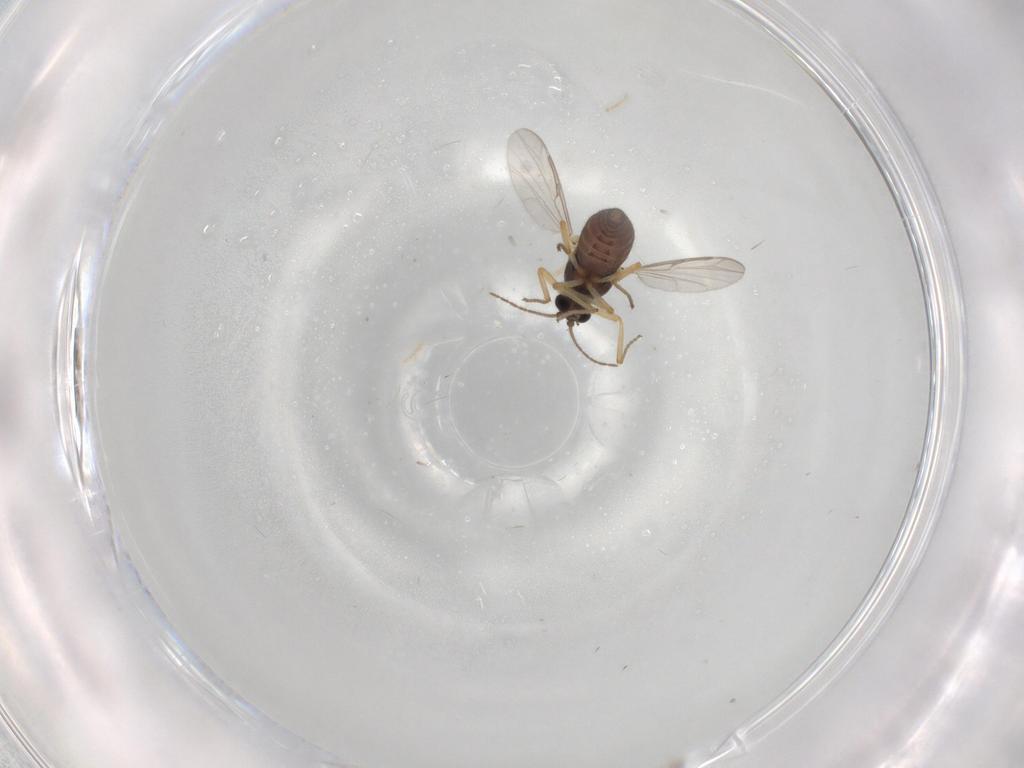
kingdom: Animalia
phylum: Arthropoda
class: Insecta
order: Diptera
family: Ceratopogonidae
